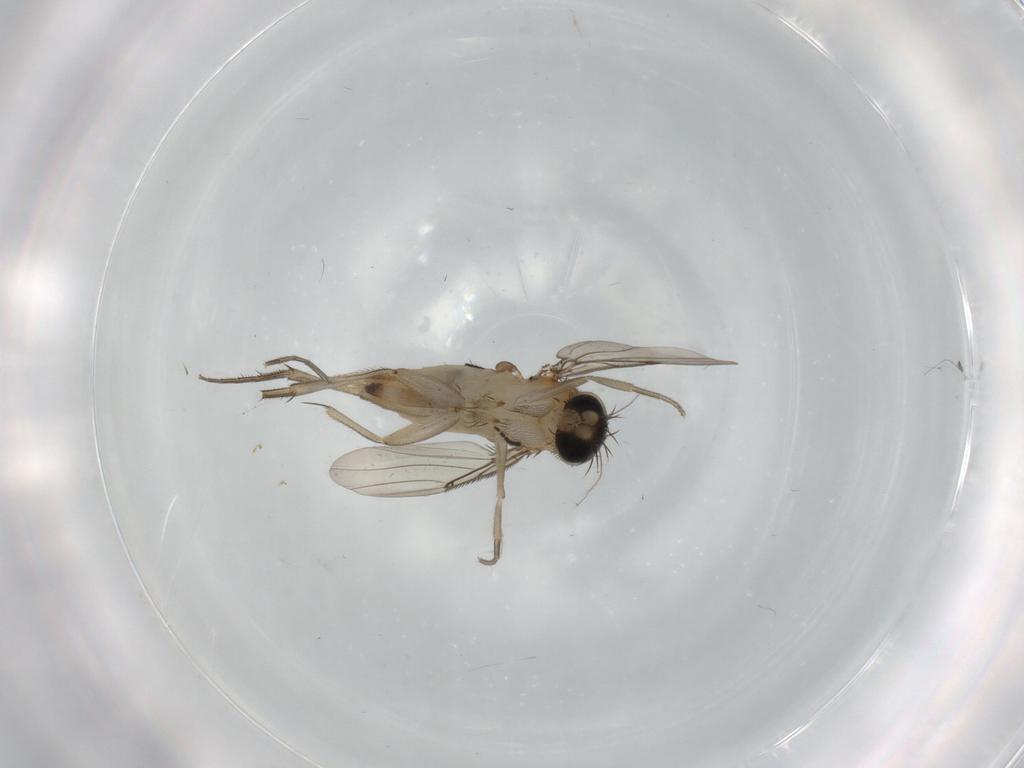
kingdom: Animalia
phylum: Arthropoda
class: Insecta
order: Diptera
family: Phoridae
